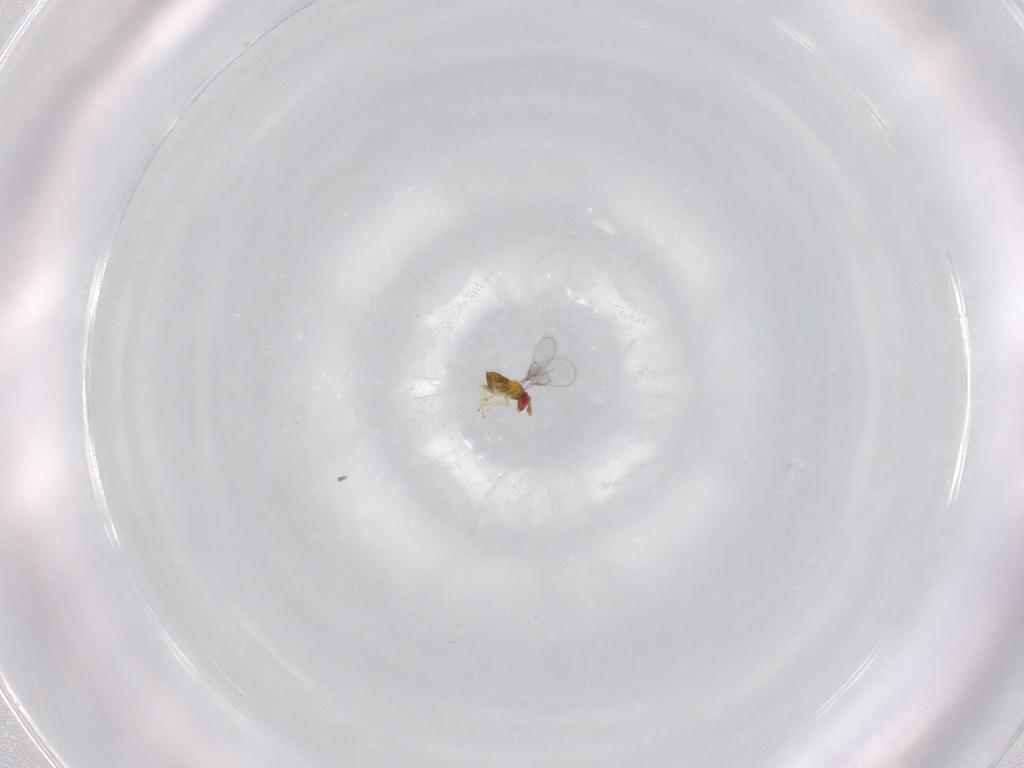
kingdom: Animalia
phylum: Arthropoda
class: Insecta
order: Hymenoptera
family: Trichogrammatidae
